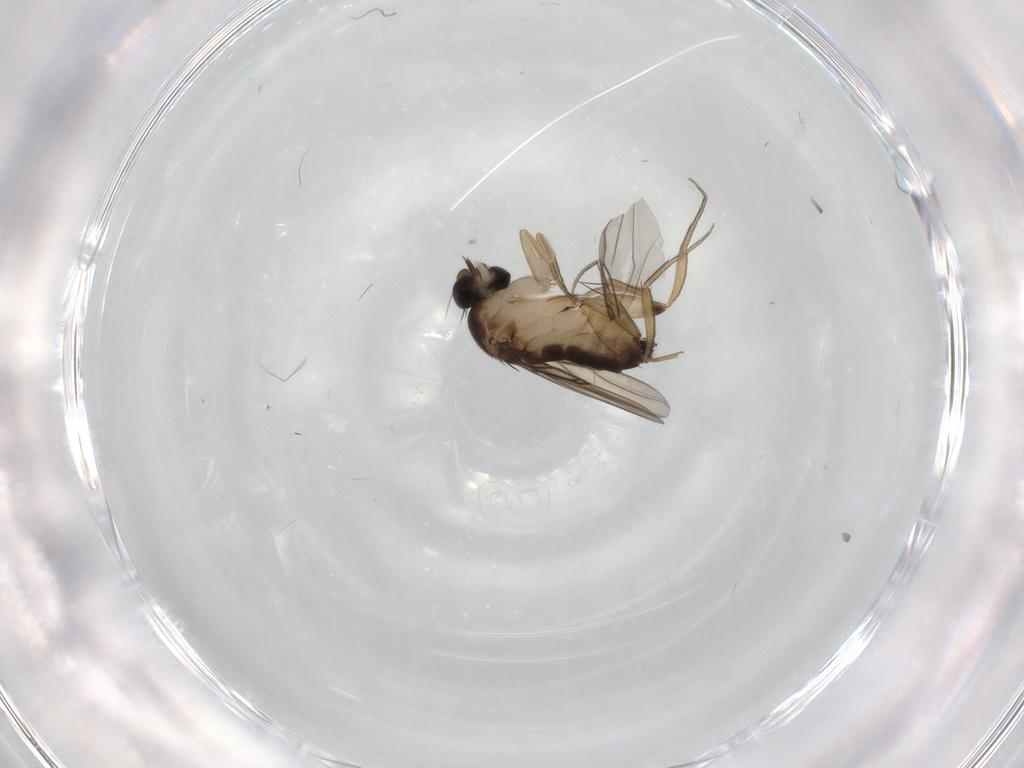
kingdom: Animalia
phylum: Arthropoda
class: Insecta
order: Diptera
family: Phoridae
